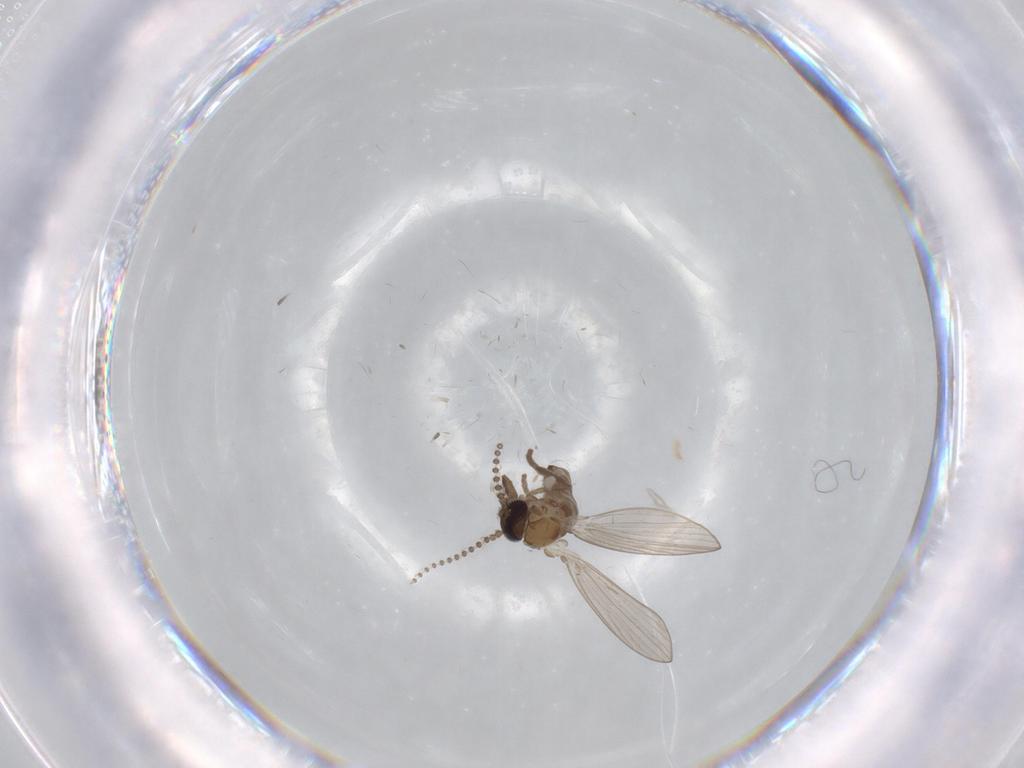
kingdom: Animalia
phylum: Arthropoda
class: Insecta
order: Diptera
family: Psychodidae
